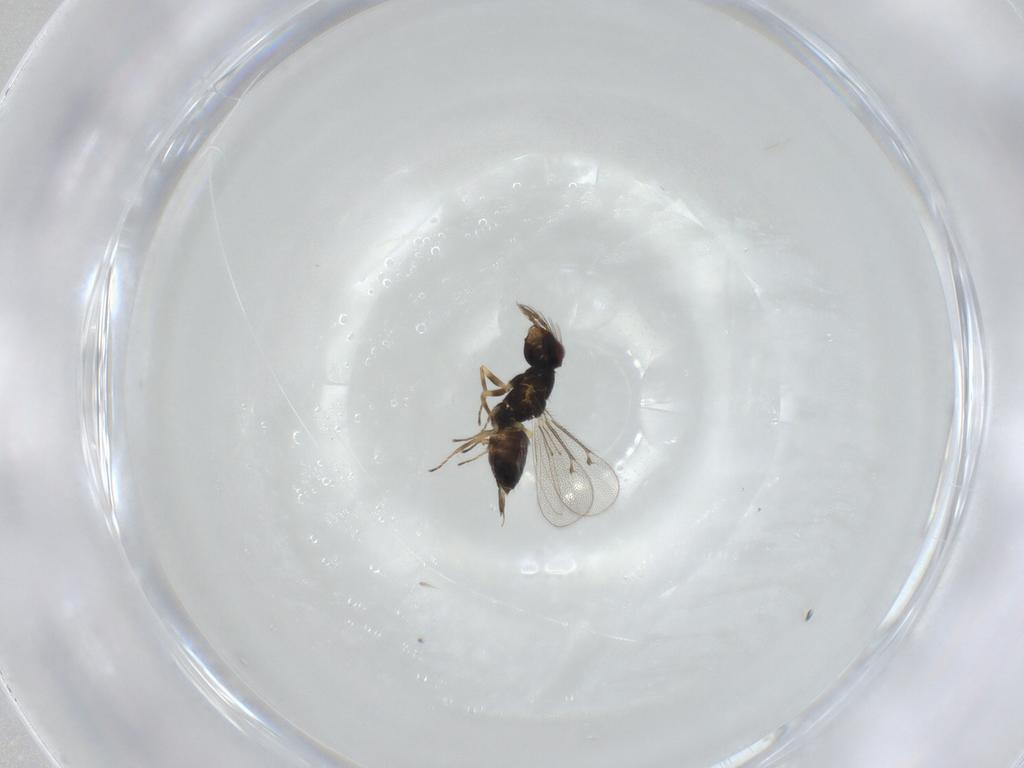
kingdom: Animalia
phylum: Arthropoda
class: Insecta
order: Hymenoptera
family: Eulophidae
